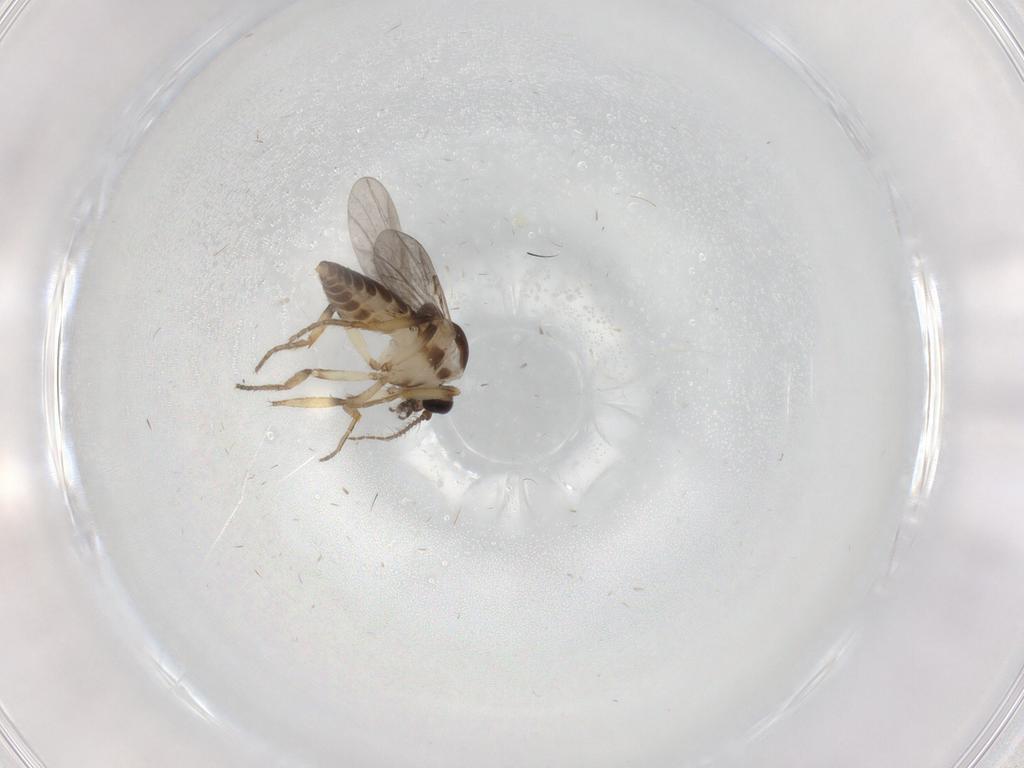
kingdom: Animalia
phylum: Arthropoda
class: Insecta
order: Diptera
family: Ceratopogonidae
